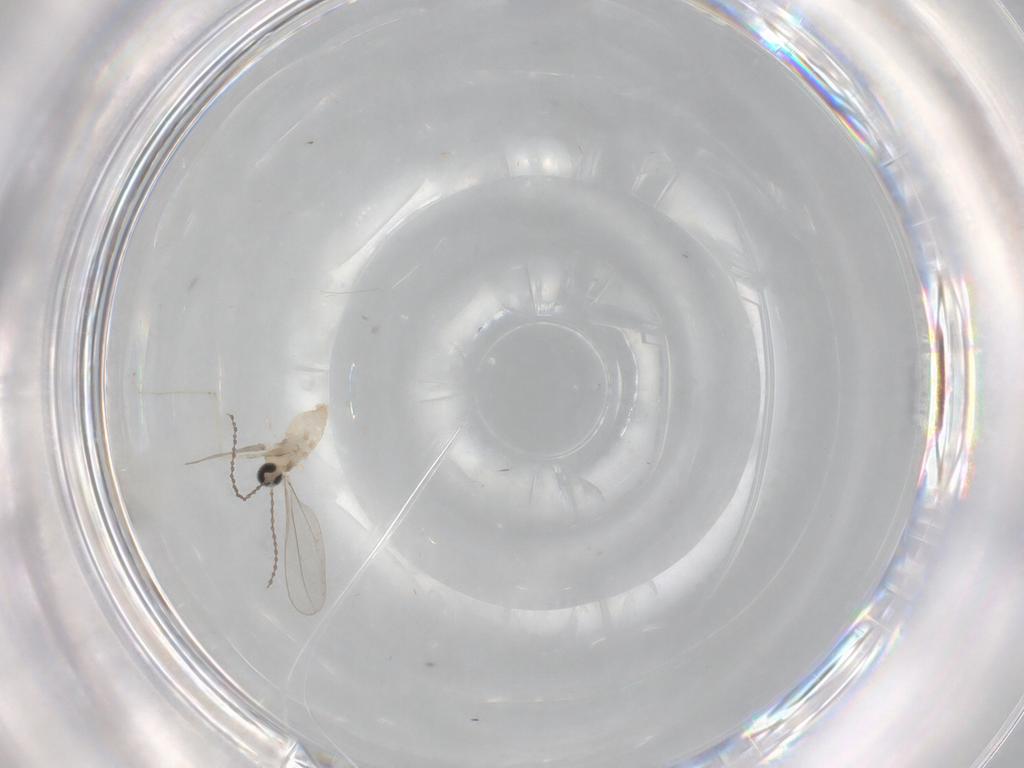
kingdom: Animalia
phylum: Arthropoda
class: Insecta
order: Diptera
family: Cecidomyiidae
